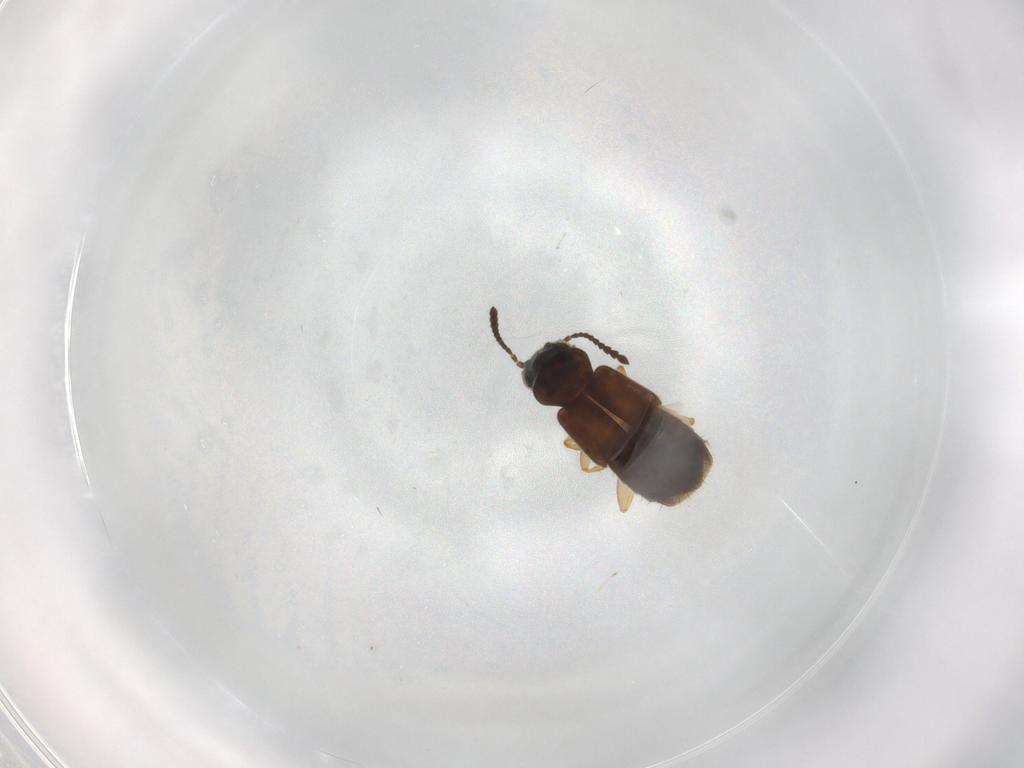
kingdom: Animalia
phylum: Arthropoda
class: Insecta
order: Coleoptera
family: Staphylinidae
